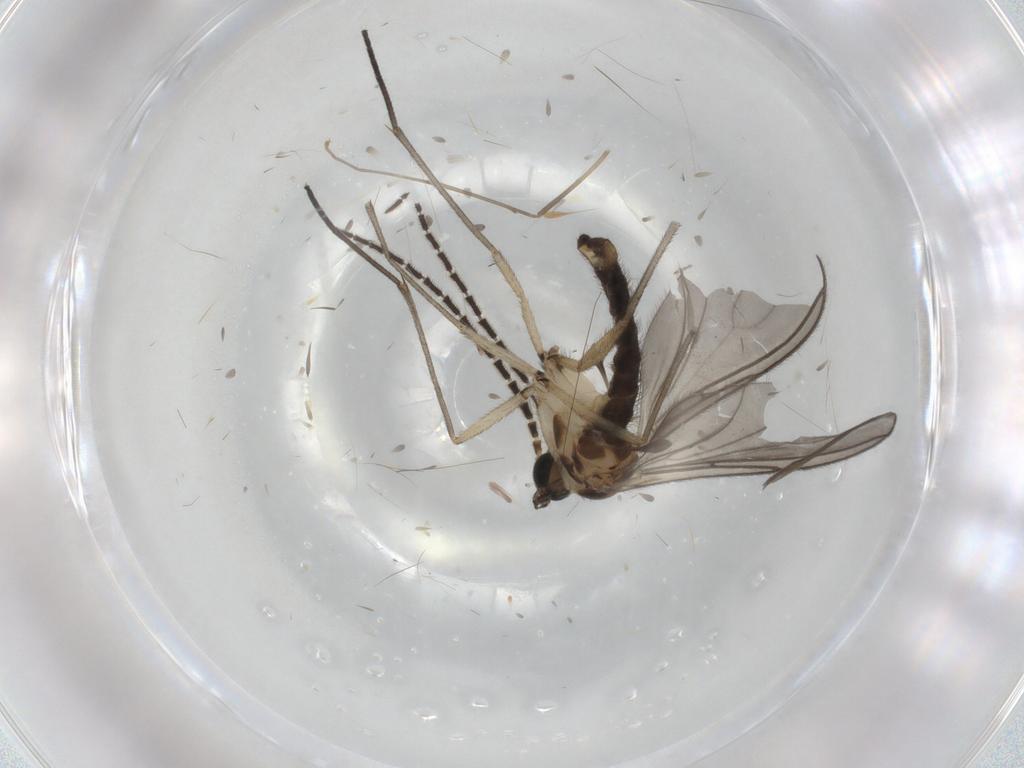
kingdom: Animalia
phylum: Arthropoda
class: Insecta
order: Diptera
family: Sciaridae
